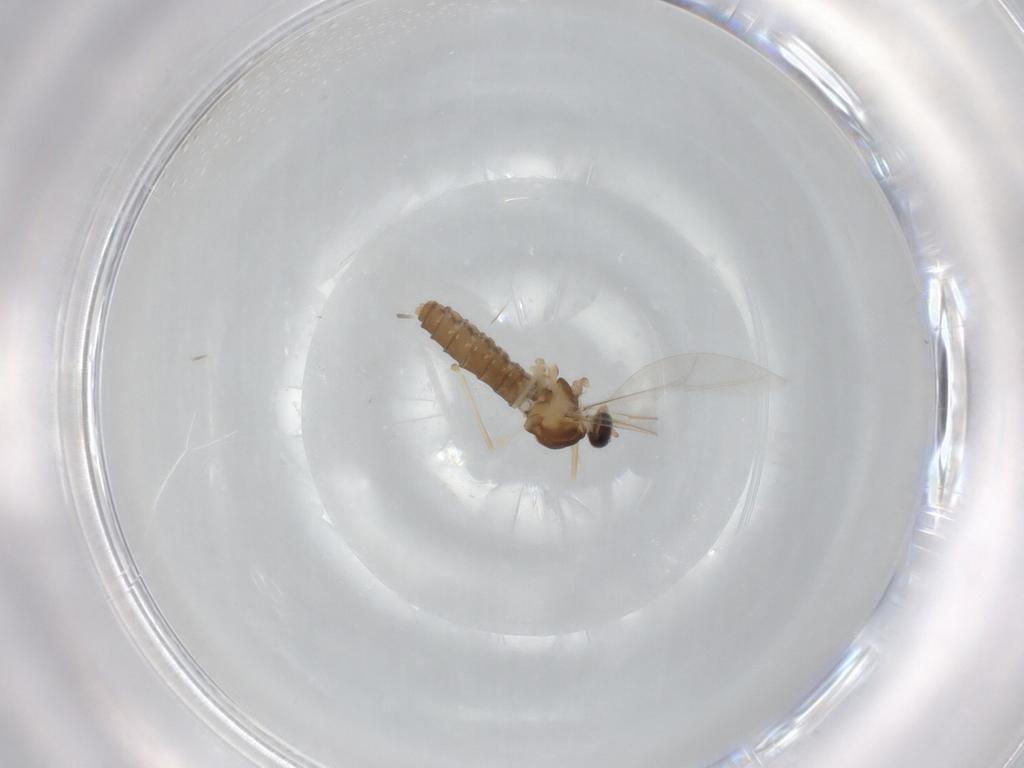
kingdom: Animalia
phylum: Arthropoda
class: Insecta
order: Diptera
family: Cecidomyiidae
